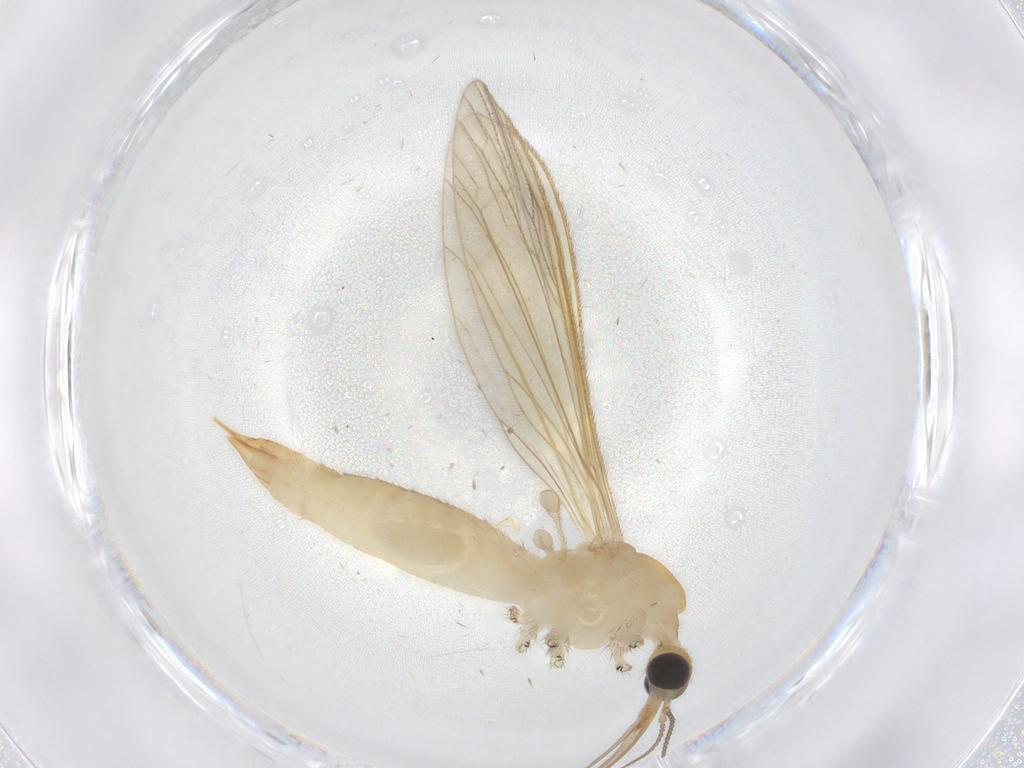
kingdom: Animalia
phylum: Arthropoda
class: Insecta
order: Diptera
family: Limoniidae
